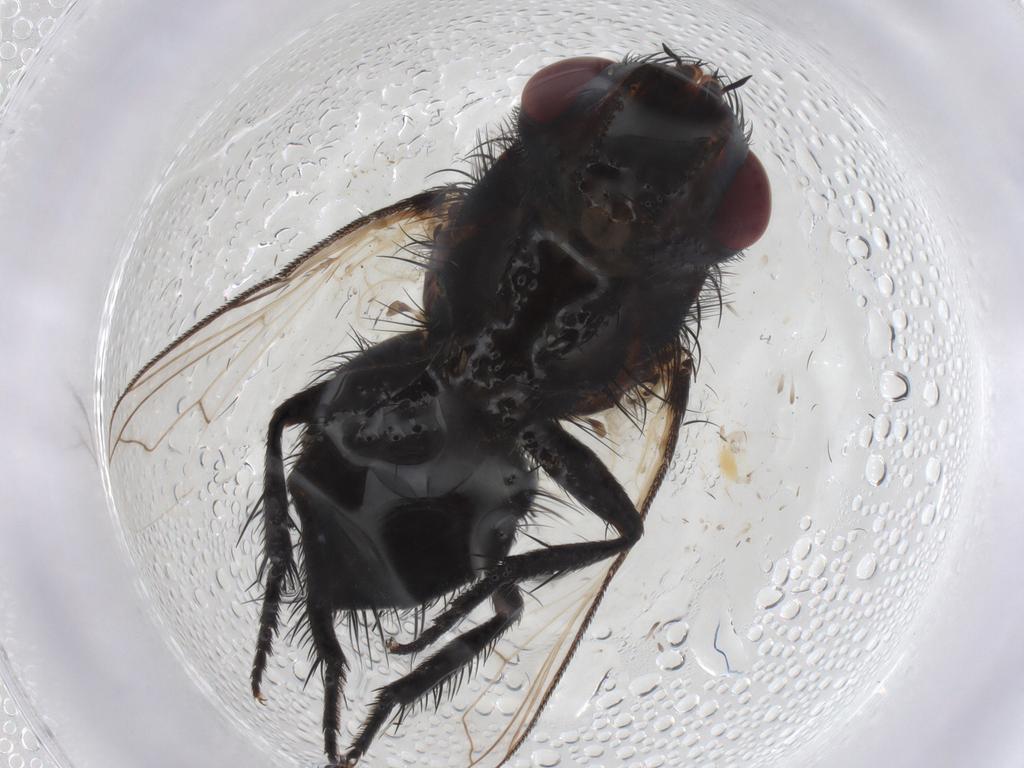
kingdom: Animalia
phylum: Arthropoda
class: Insecta
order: Diptera
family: Tachinidae
